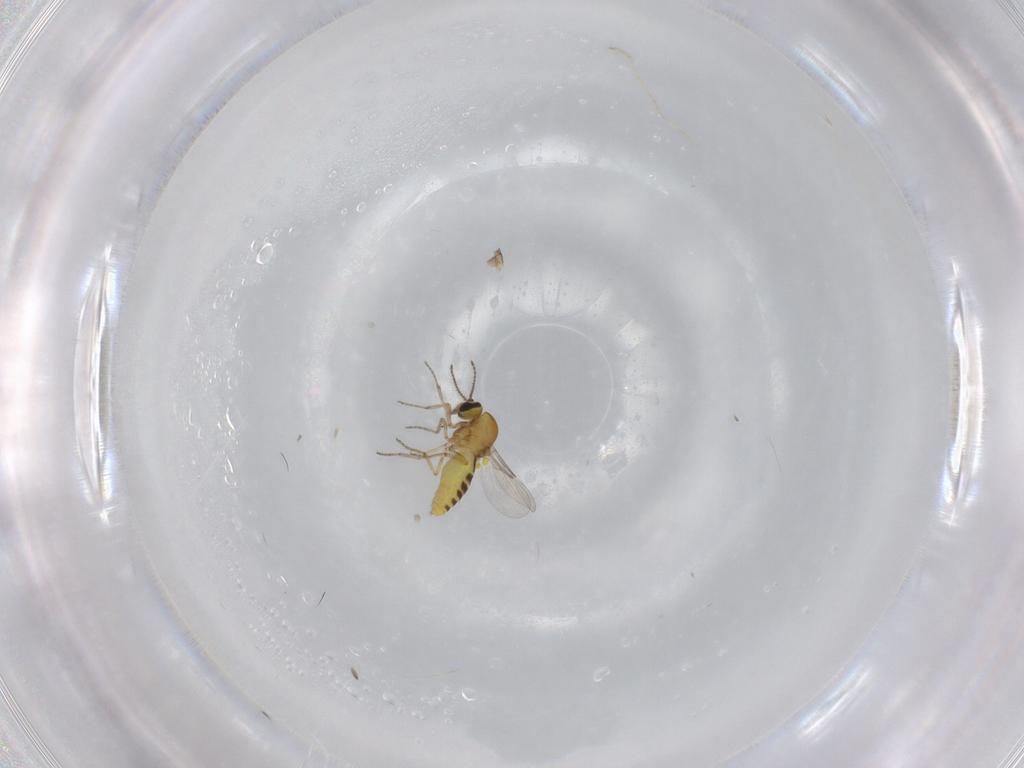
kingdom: Animalia
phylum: Arthropoda
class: Insecta
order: Diptera
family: Ceratopogonidae
